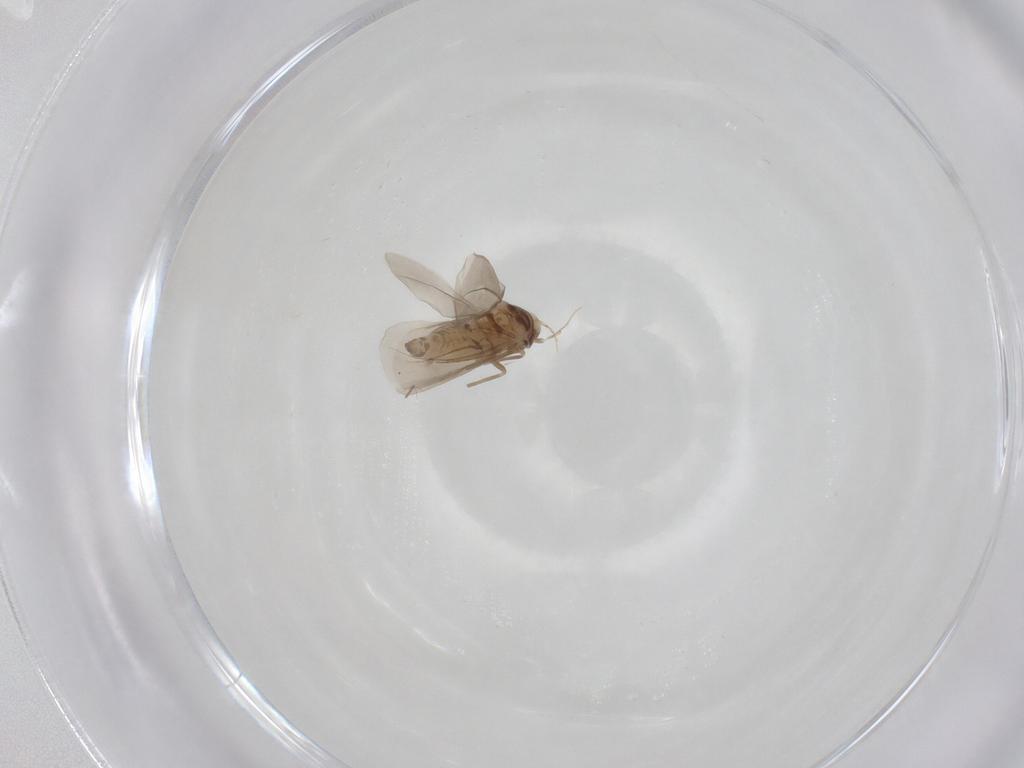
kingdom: Animalia
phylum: Arthropoda
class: Insecta
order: Hemiptera
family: Aleyrodidae
